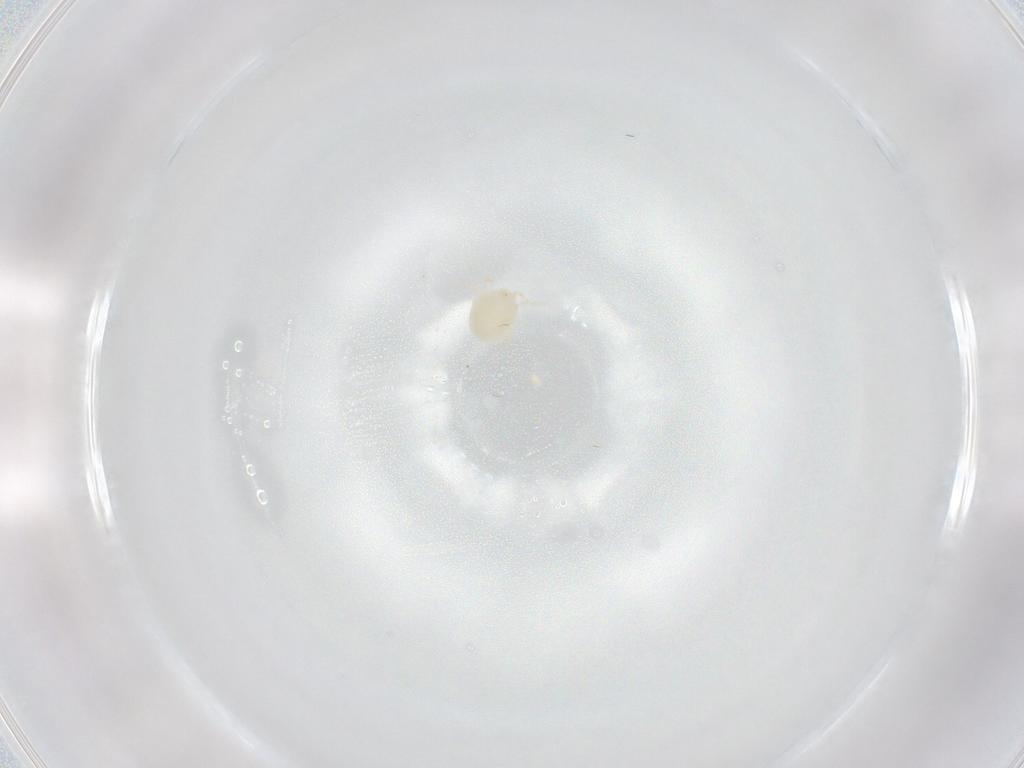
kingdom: Animalia
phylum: Arthropoda
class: Arachnida
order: Trombidiformes
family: Hydryphantidae
